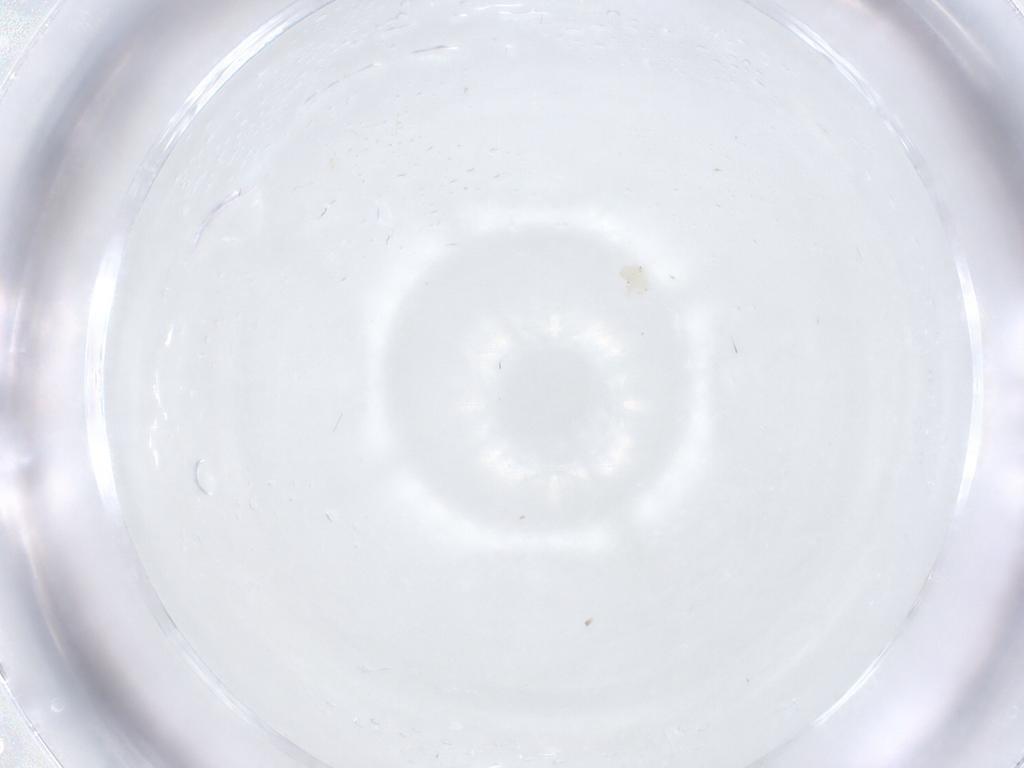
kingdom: Animalia
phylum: Arthropoda
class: Arachnida
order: Trombidiformes
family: Anystidae
